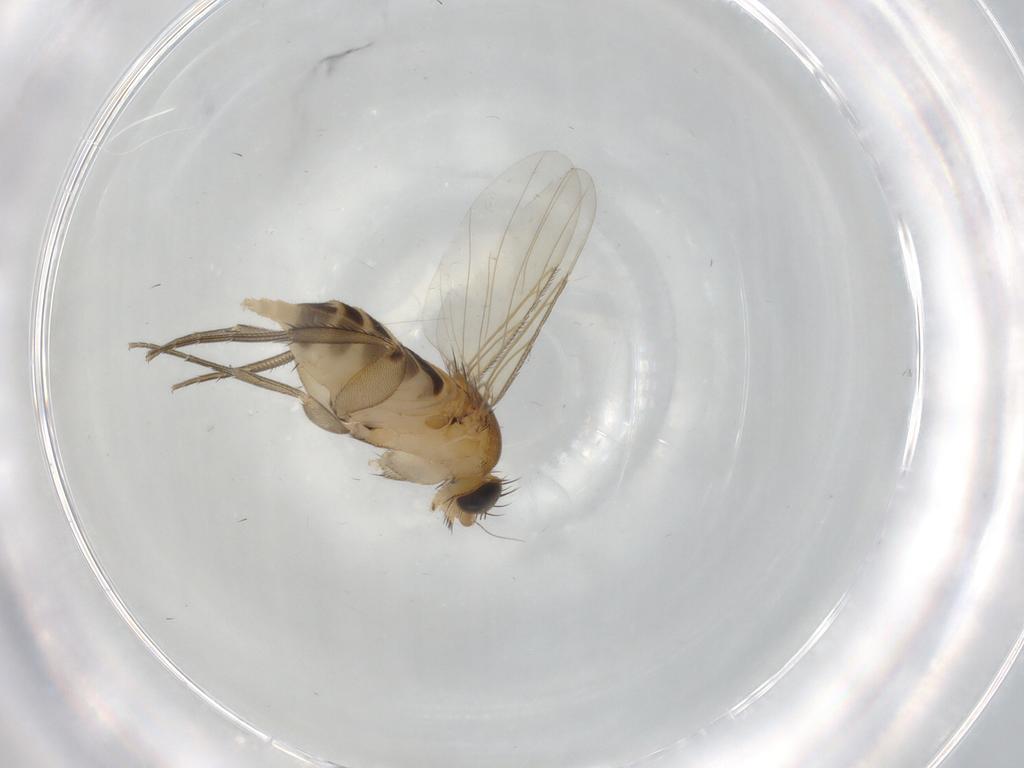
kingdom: Animalia
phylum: Arthropoda
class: Insecta
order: Diptera
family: Phoridae
